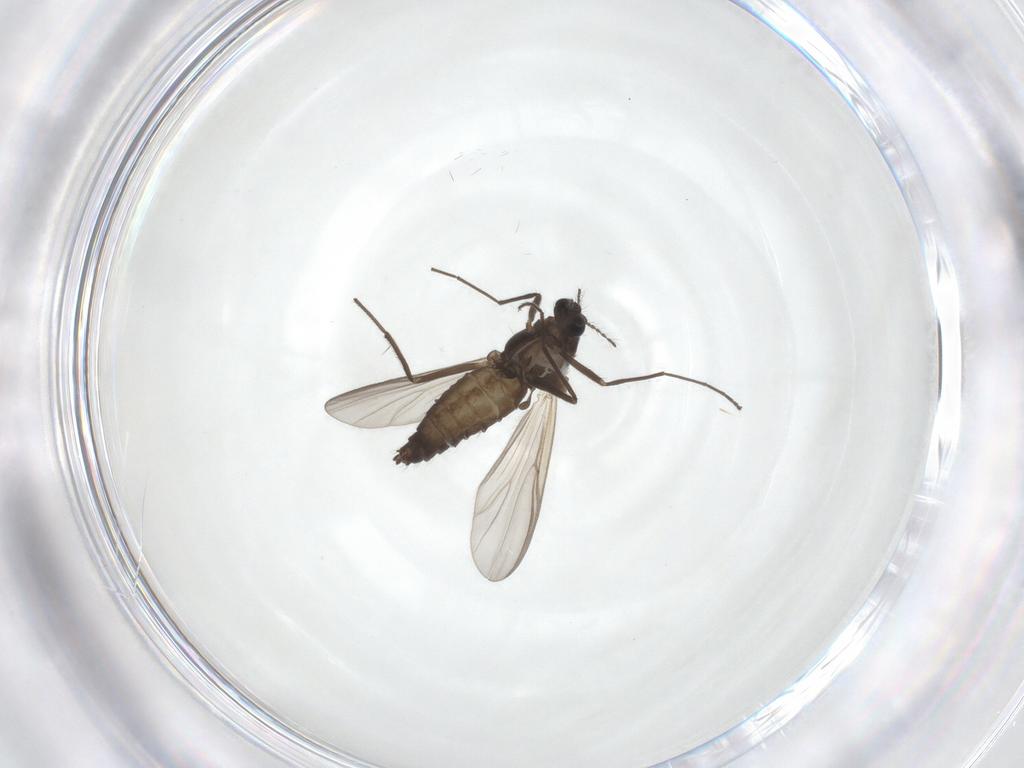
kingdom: Animalia
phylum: Arthropoda
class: Insecta
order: Diptera
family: Chironomidae
